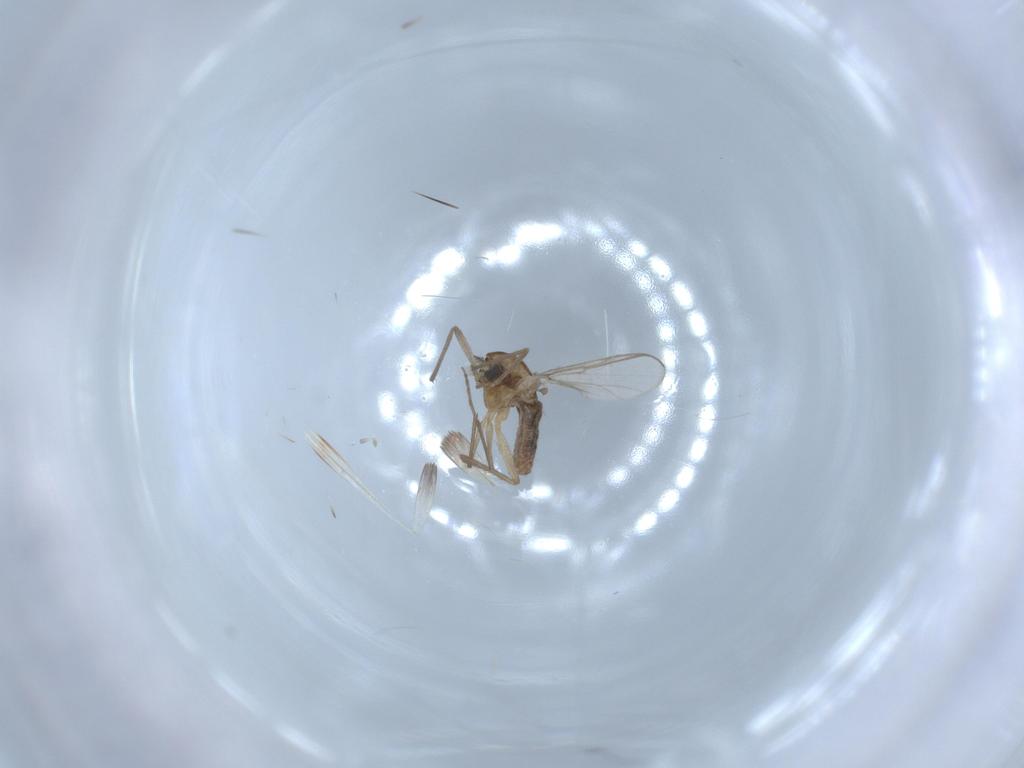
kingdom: Animalia
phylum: Arthropoda
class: Insecta
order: Diptera
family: Chironomidae
